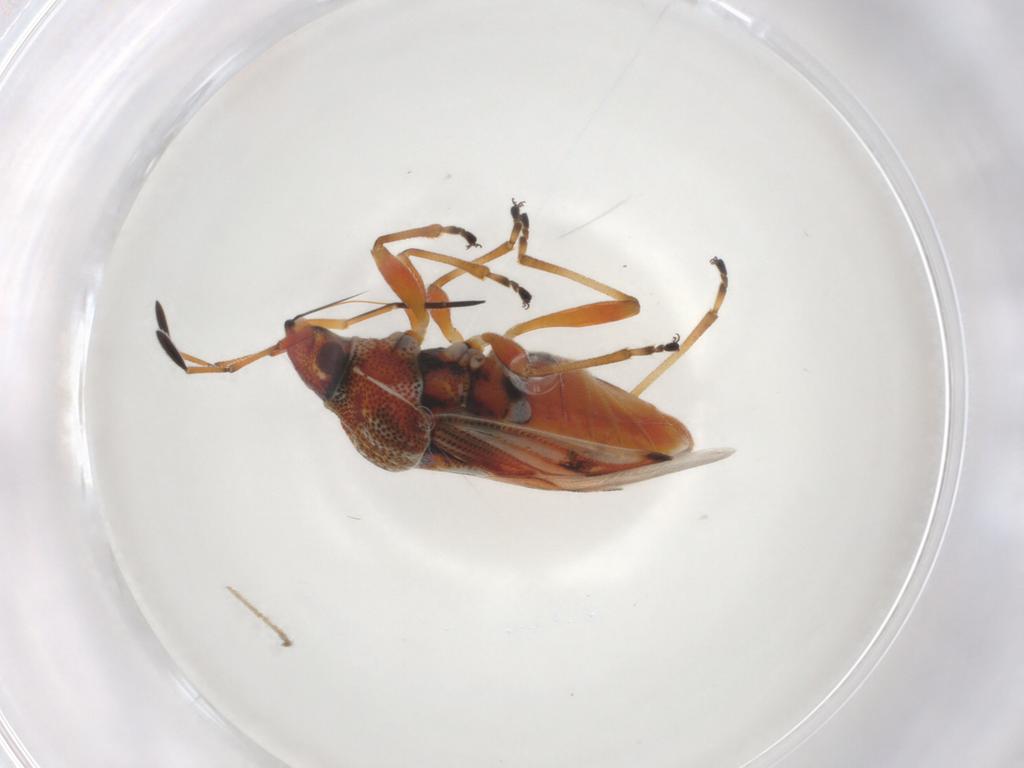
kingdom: Animalia
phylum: Arthropoda
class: Insecta
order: Hemiptera
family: Lygaeidae
